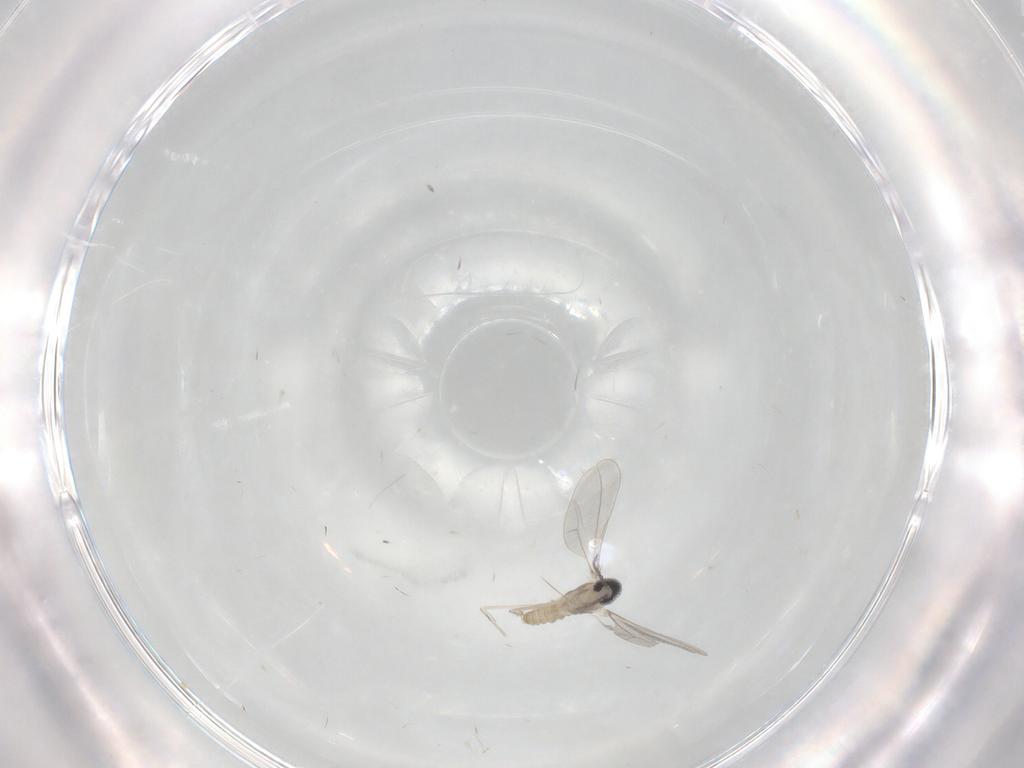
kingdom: Animalia
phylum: Arthropoda
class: Insecta
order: Diptera
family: Ceratopogonidae
